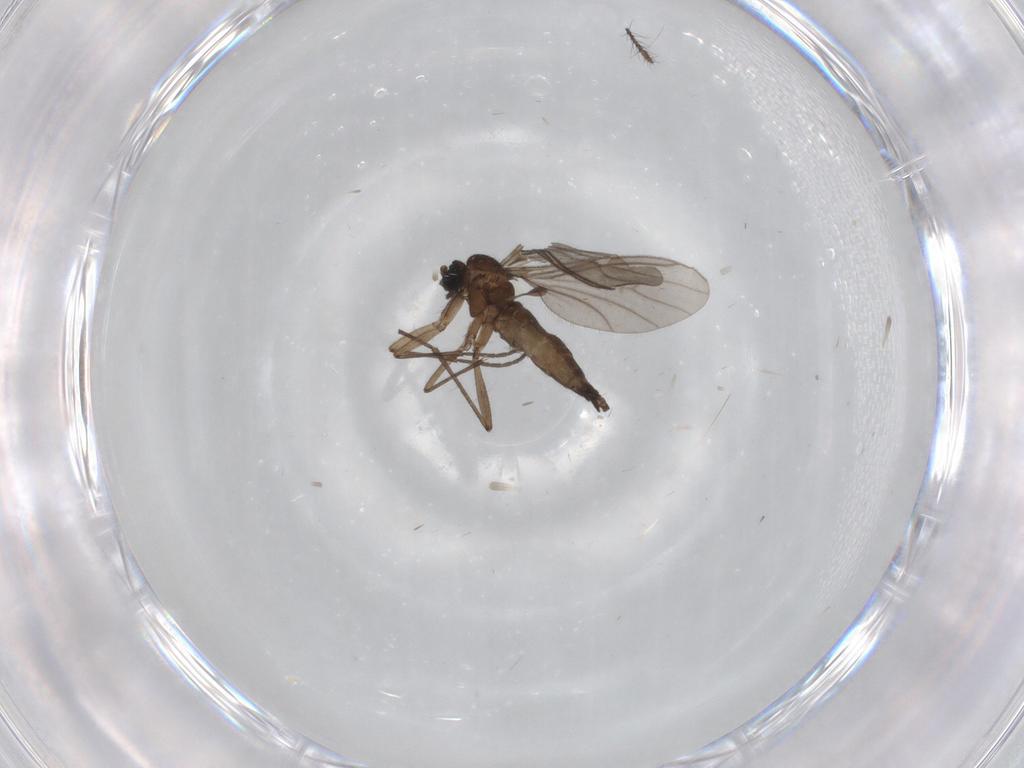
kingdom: Animalia
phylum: Arthropoda
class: Insecta
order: Diptera
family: Sciaridae
